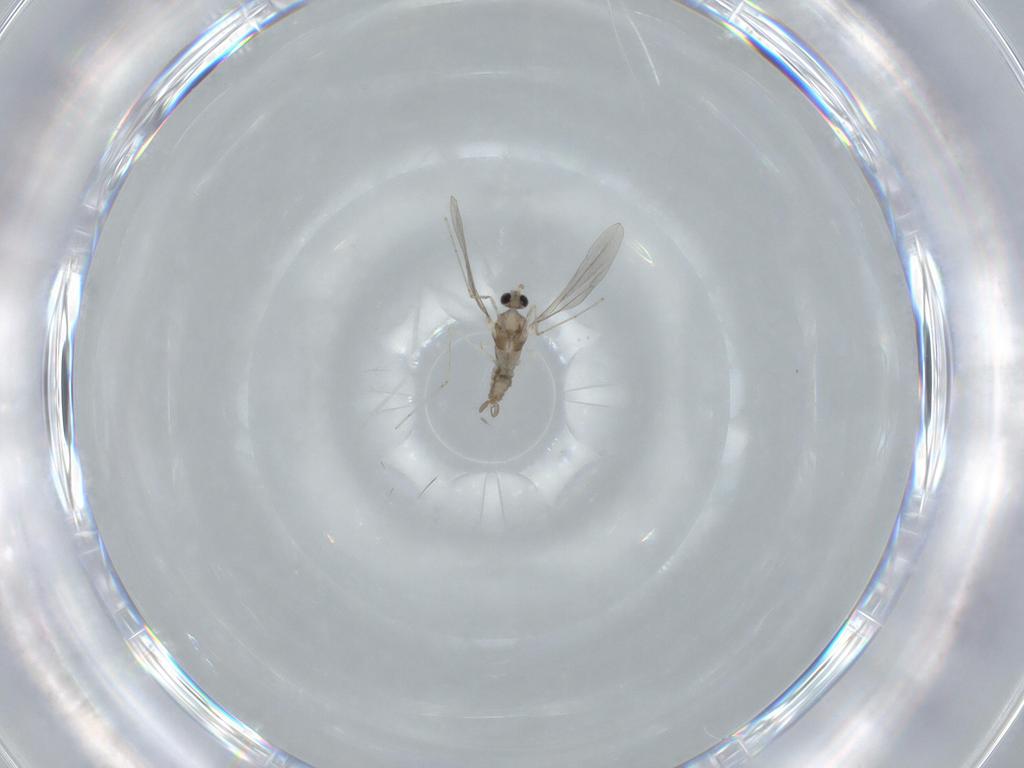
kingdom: Animalia
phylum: Arthropoda
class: Insecta
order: Diptera
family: Cecidomyiidae
